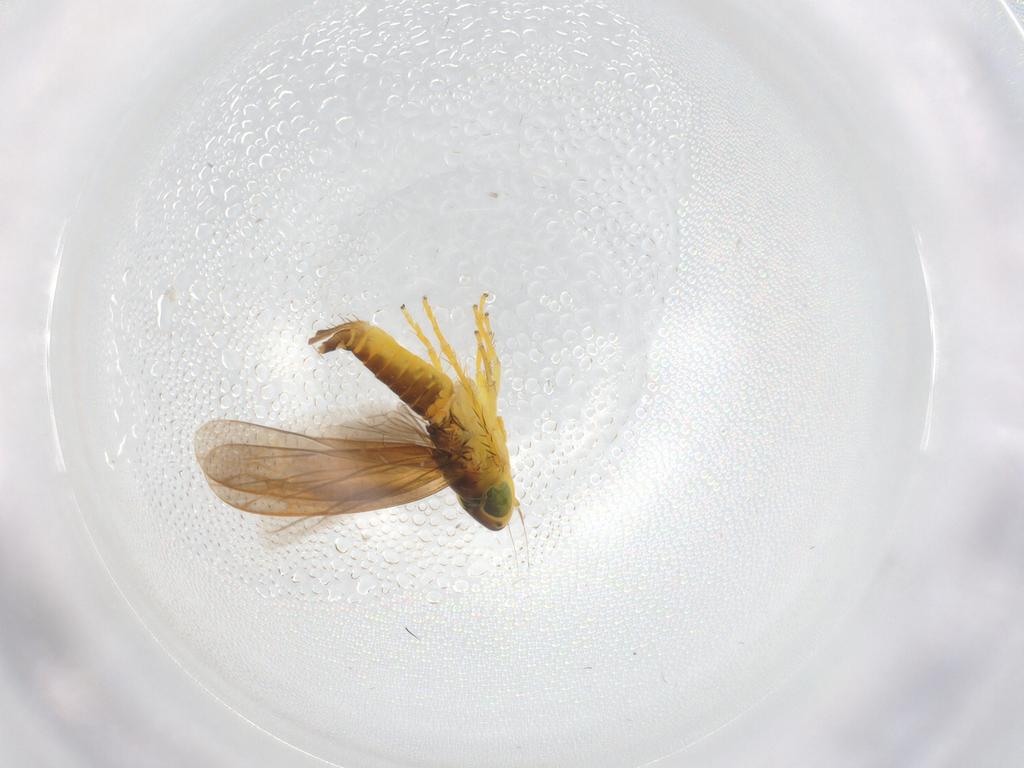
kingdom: Animalia
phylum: Arthropoda
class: Insecta
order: Hemiptera
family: Cicadellidae
